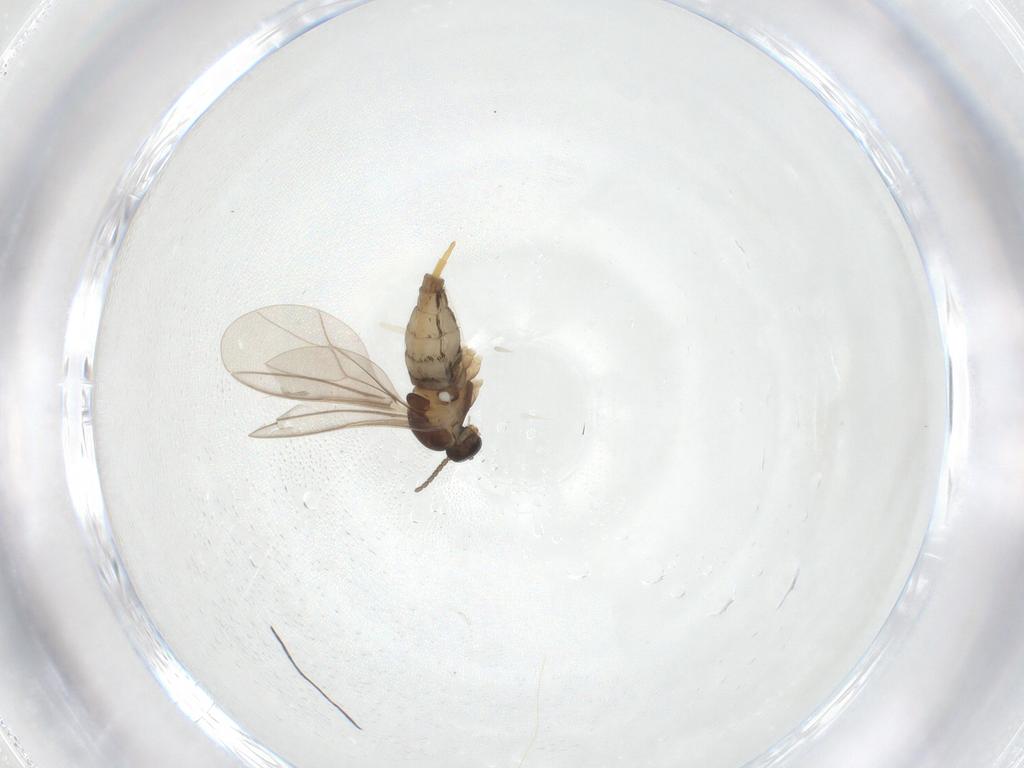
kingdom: Animalia
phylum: Arthropoda
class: Insecta
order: Diptera
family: Cecidomyiidae
